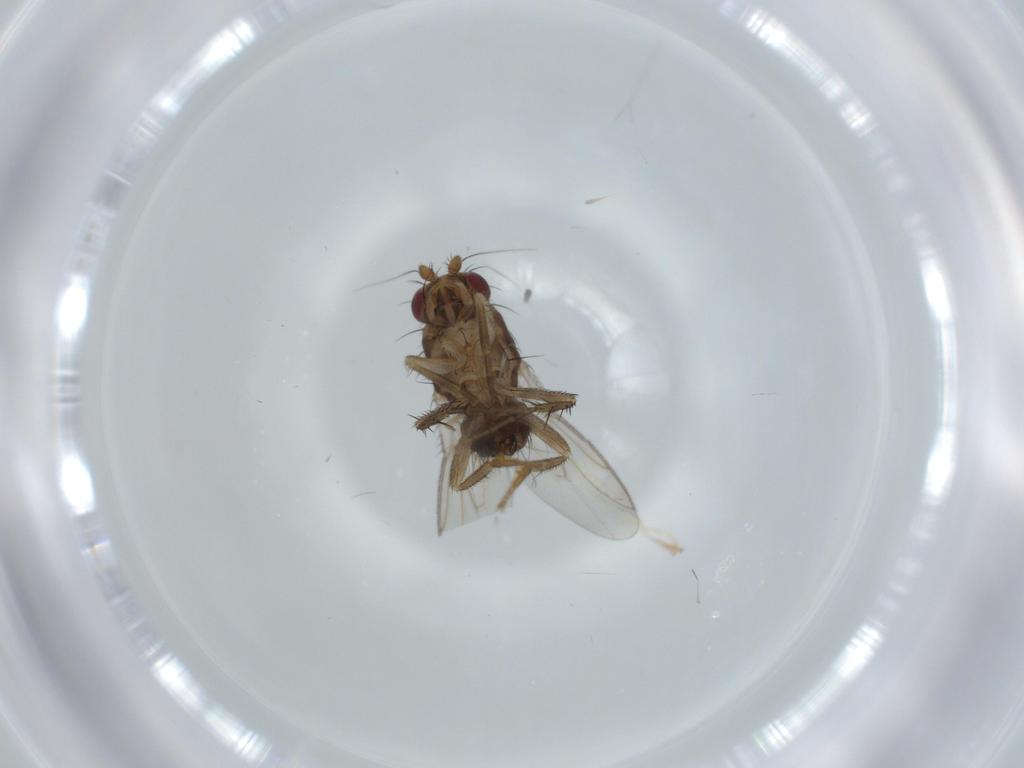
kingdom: Animalia
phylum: Arthropoda
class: Insecta
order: Diptera
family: Sphaeroceridae
